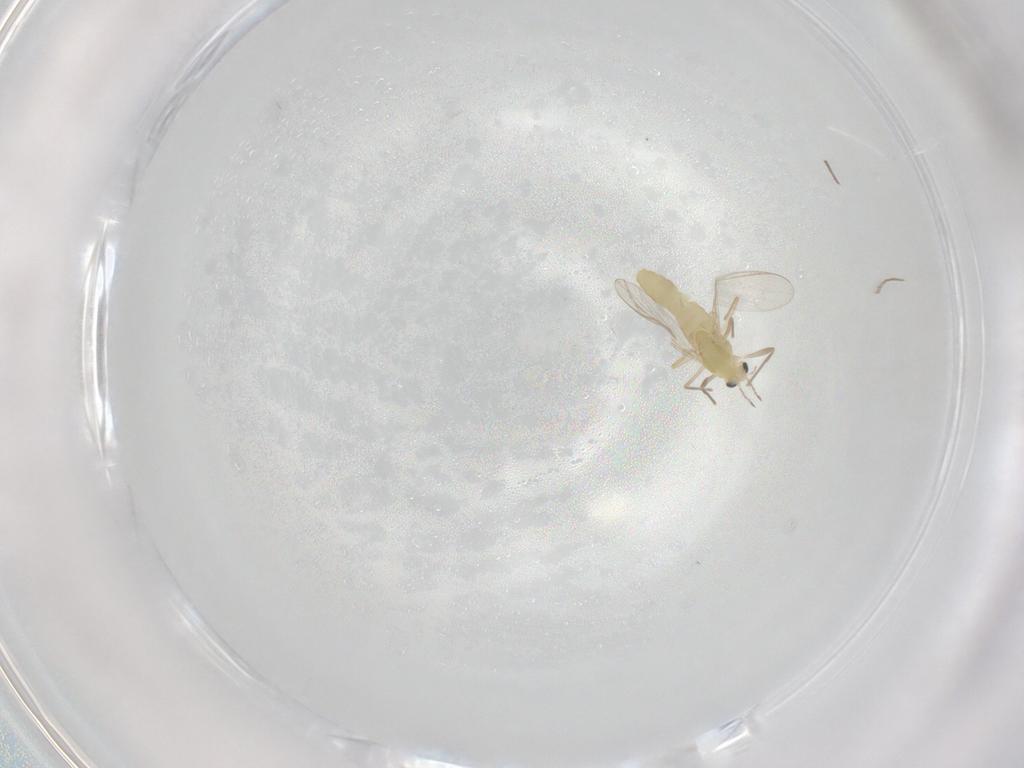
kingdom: Animalia
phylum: Arthropoda
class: Insecta
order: Diptera
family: Chironomidae
